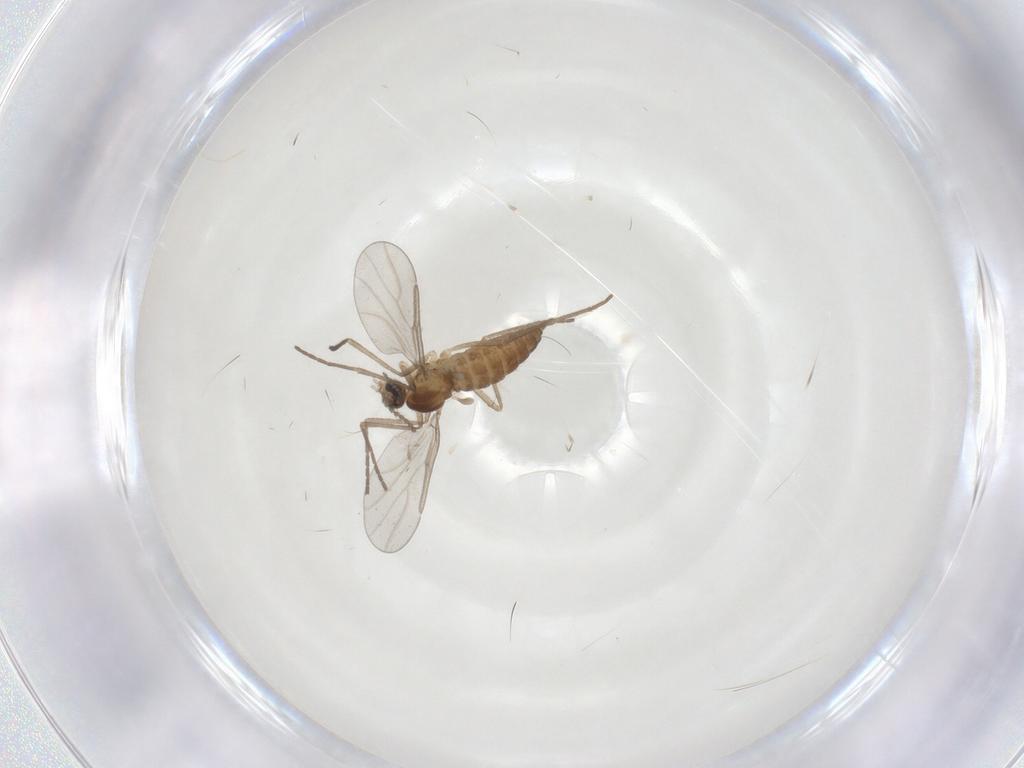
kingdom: Animalia
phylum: Arthropoda
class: Insecta
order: Diptera
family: Cecidomyiidae
